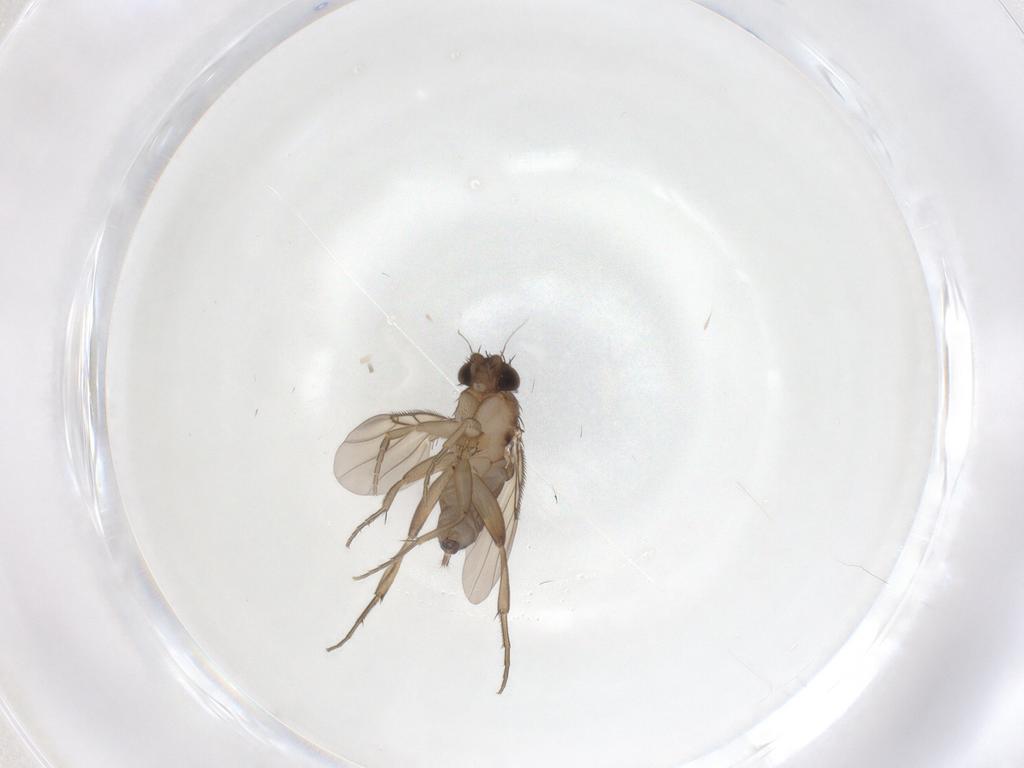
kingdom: Animalia
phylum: Arthropoda
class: Insecta
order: Diptera
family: Phoridae
